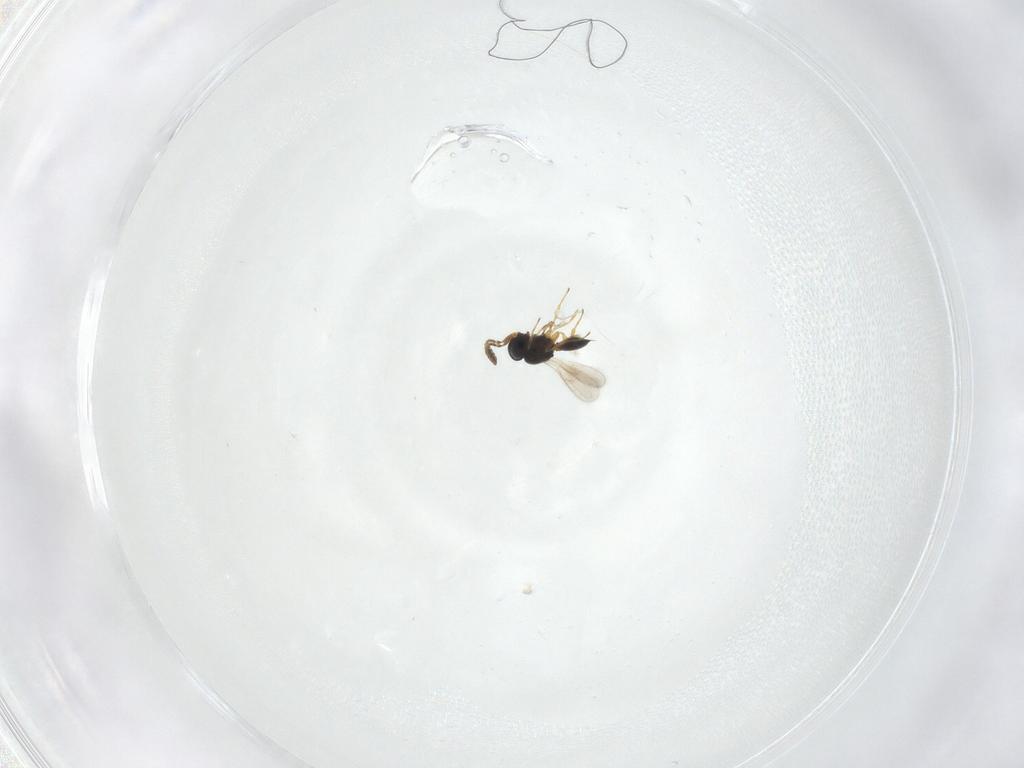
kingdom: Animalia
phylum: Arthropoda
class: Insecta
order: Hymenoptera
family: Scelionidae
